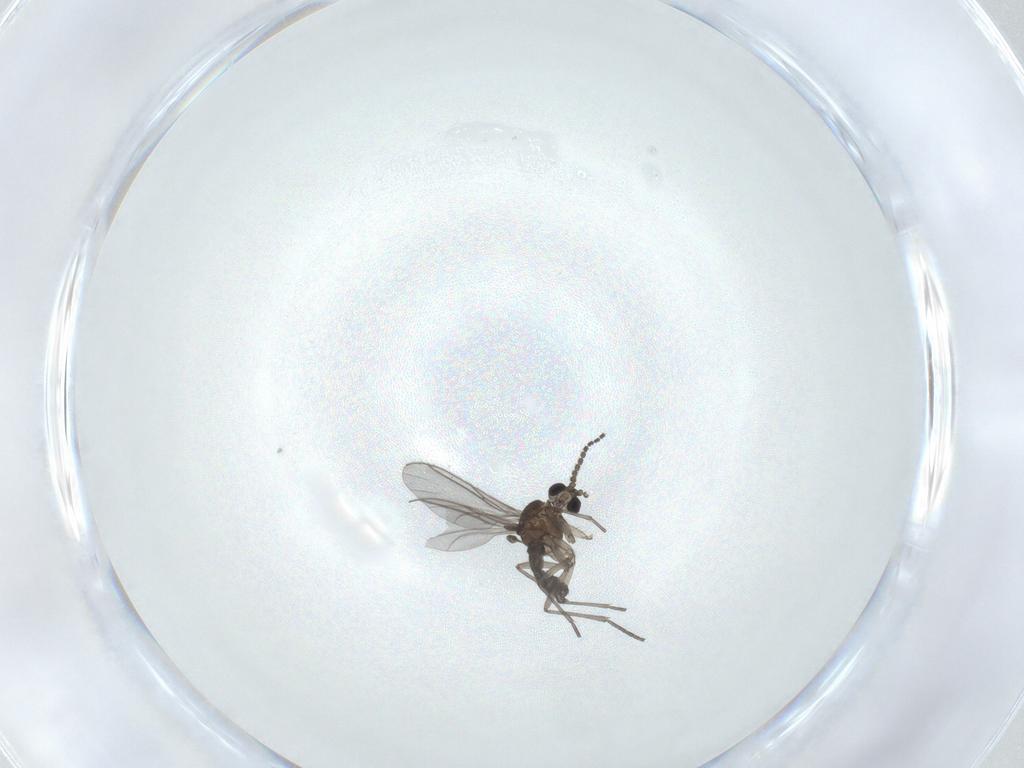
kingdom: Animalia
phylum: Arthropoda
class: Insecta
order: Diptera
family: Sciaridae
